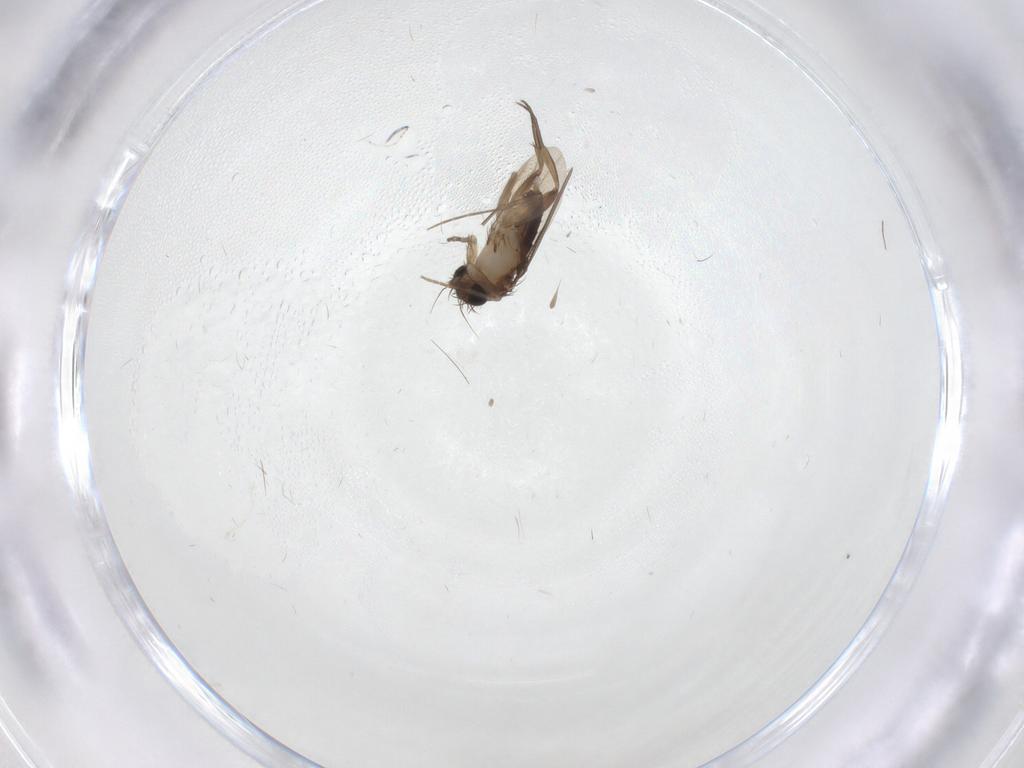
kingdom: Animalia
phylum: Arthropoda
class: Insecta
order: Diptera
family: Phoridae
